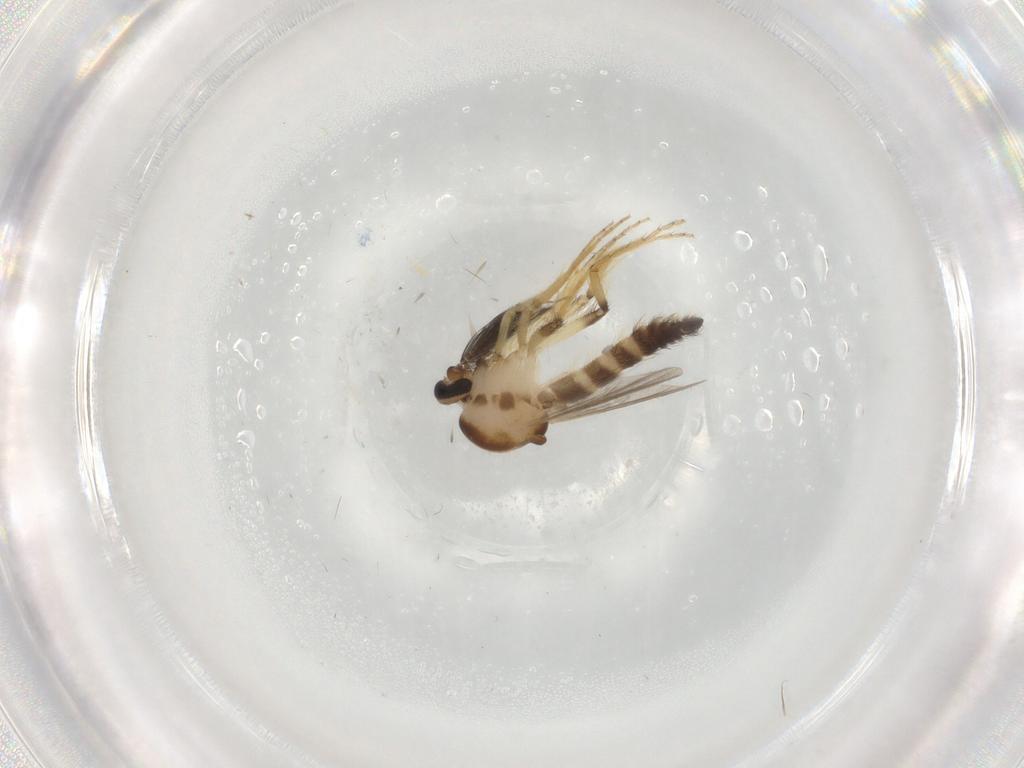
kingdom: Animalia
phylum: Arthropoda
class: Insecta
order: Diptera
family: Ceratopogonidae
